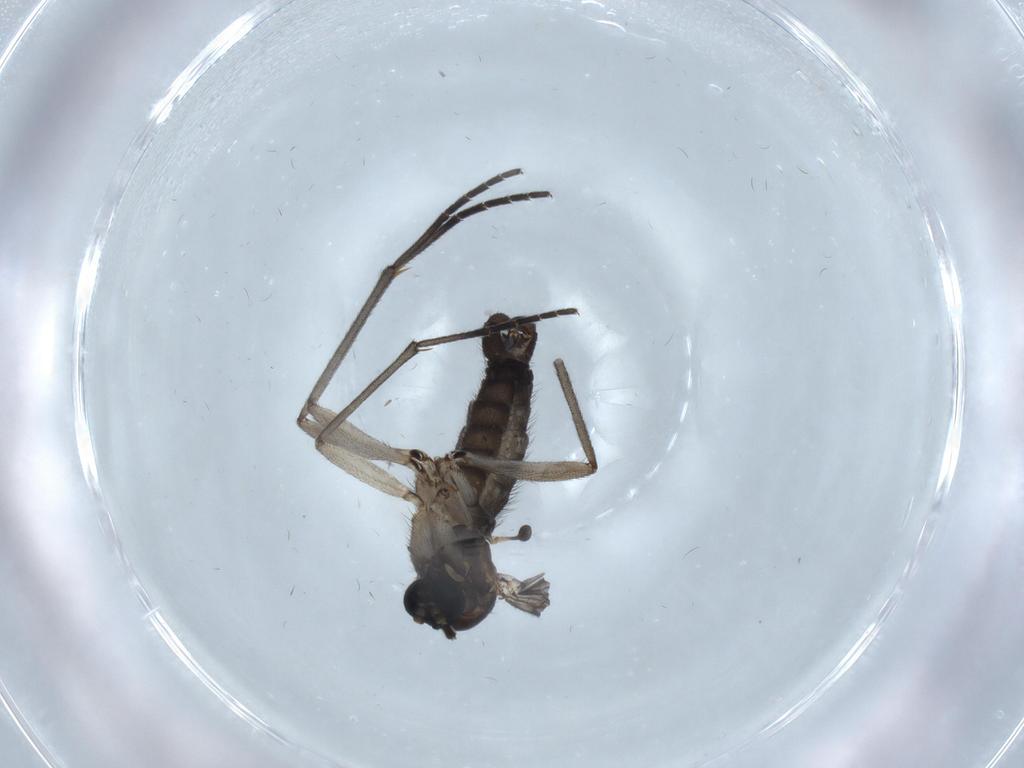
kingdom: Animalia
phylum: Arthropoda
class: Insecta
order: Diptera
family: Sciaridae
